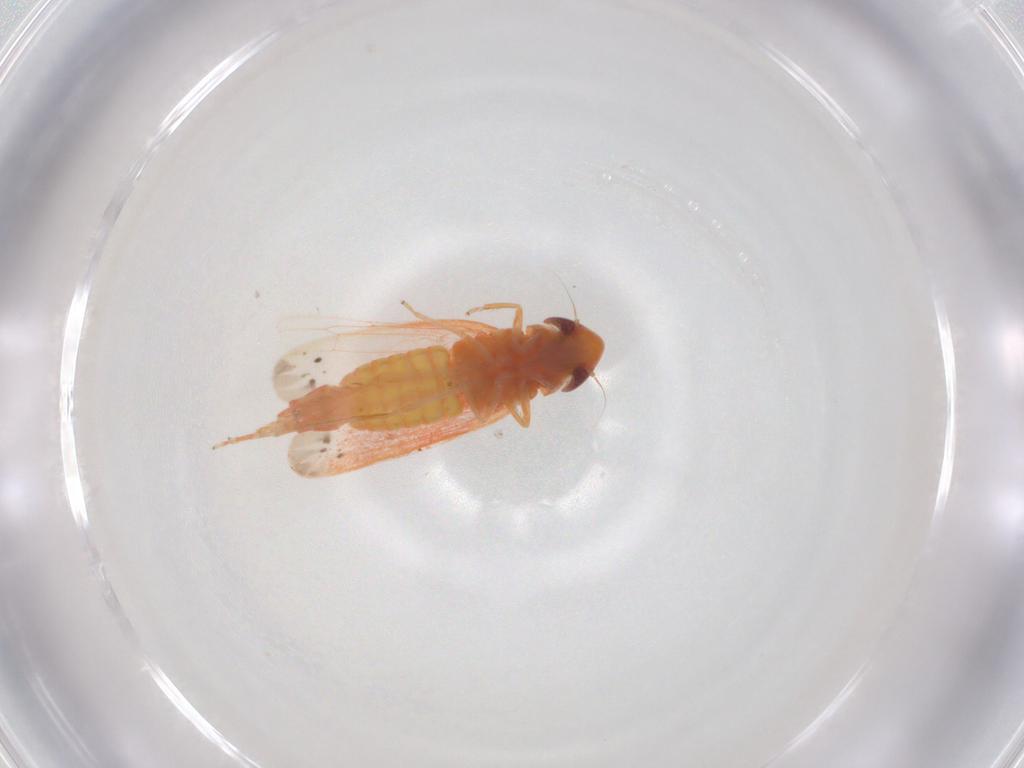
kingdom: Animalia
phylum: Arthropoda
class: Insecta
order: Hemiptera
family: Cicadellidae
